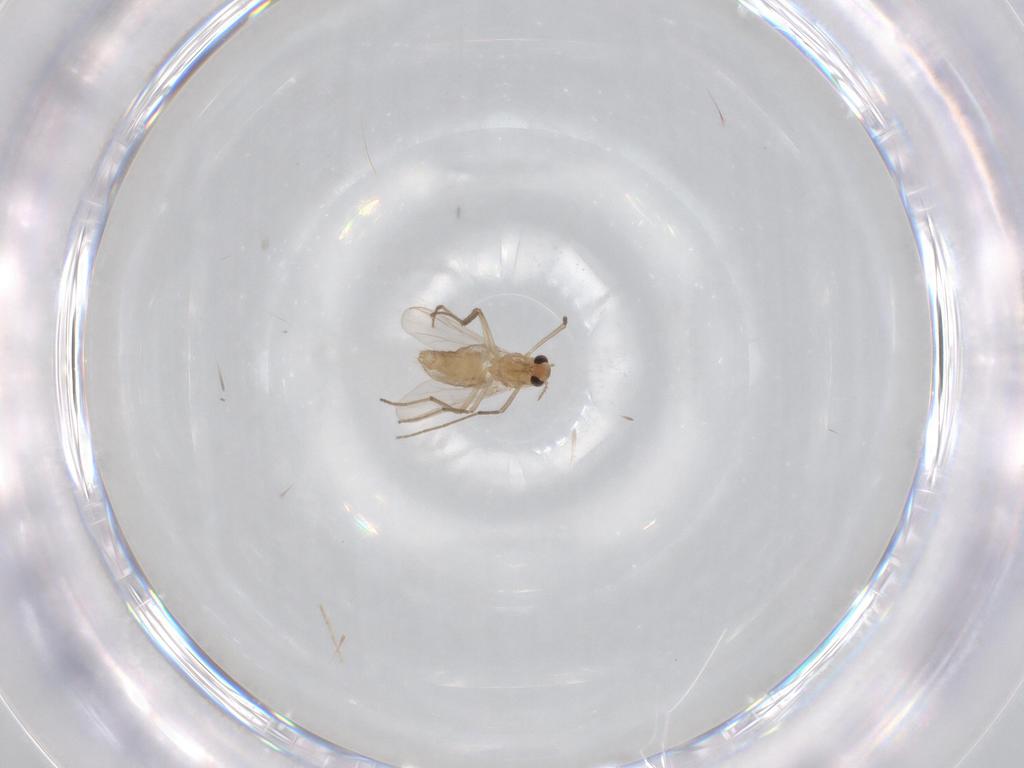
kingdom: Animalia
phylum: Arthropoda
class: Insecta
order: Diptera
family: Chironomidae
